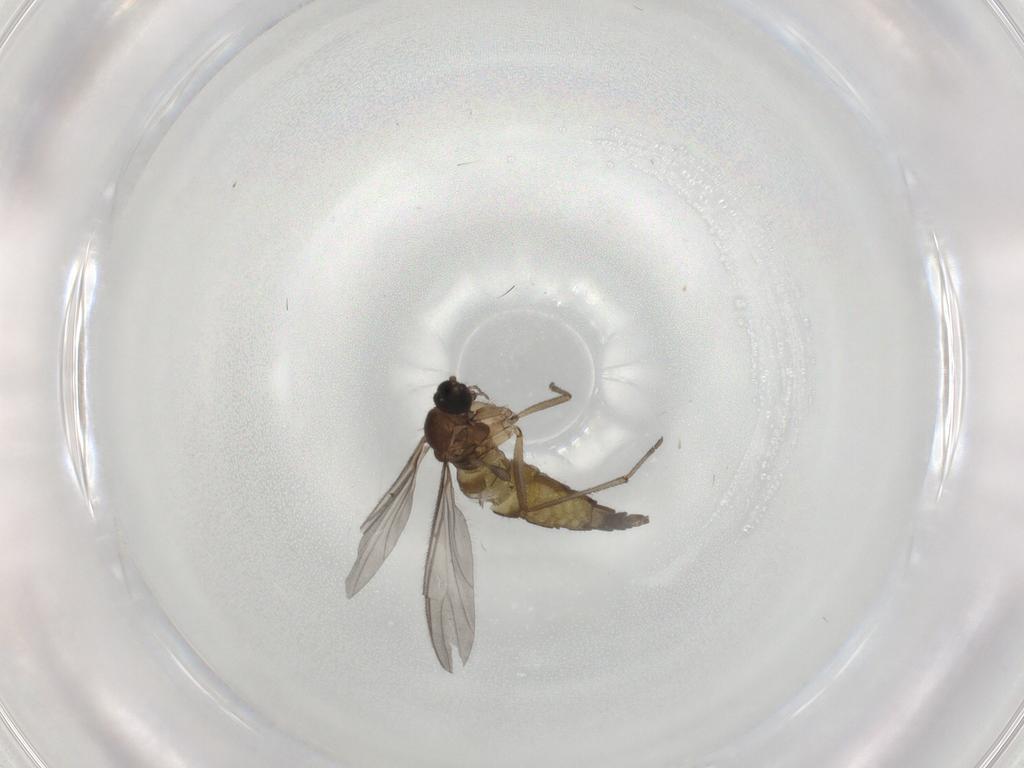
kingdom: Animalia
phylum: Arthropoda
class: Insecta
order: Diptera
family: Sciaridae
